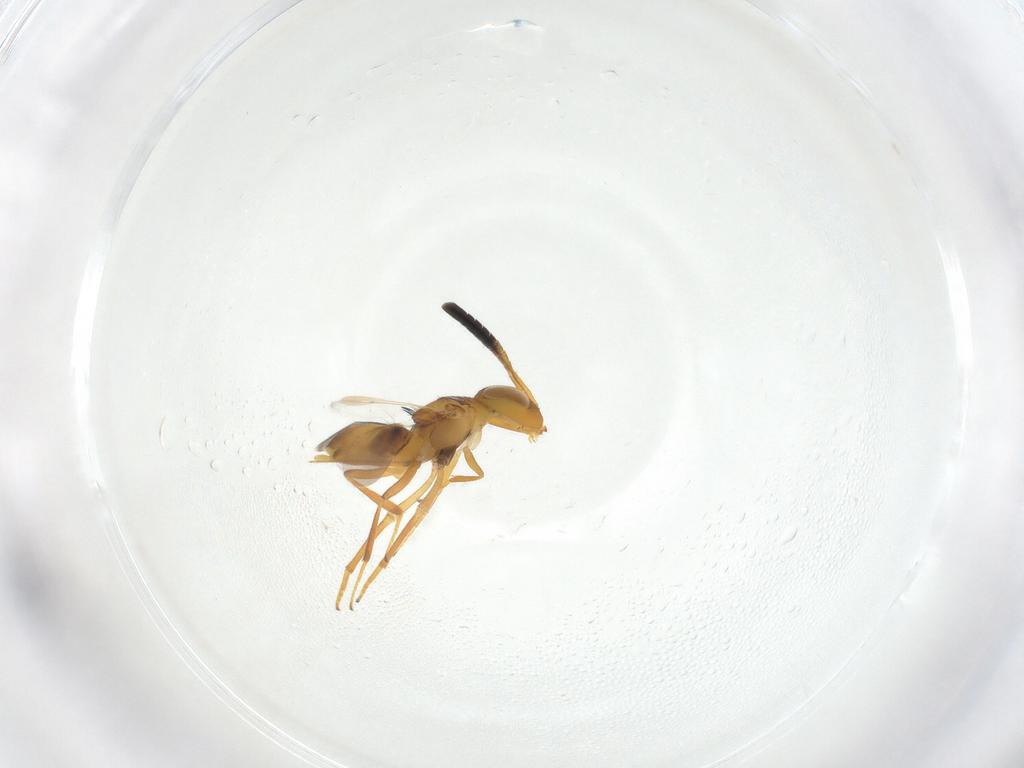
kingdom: Animalia
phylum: Arthropoda
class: Insecta
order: Hymenoptera
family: Encyrtidae
